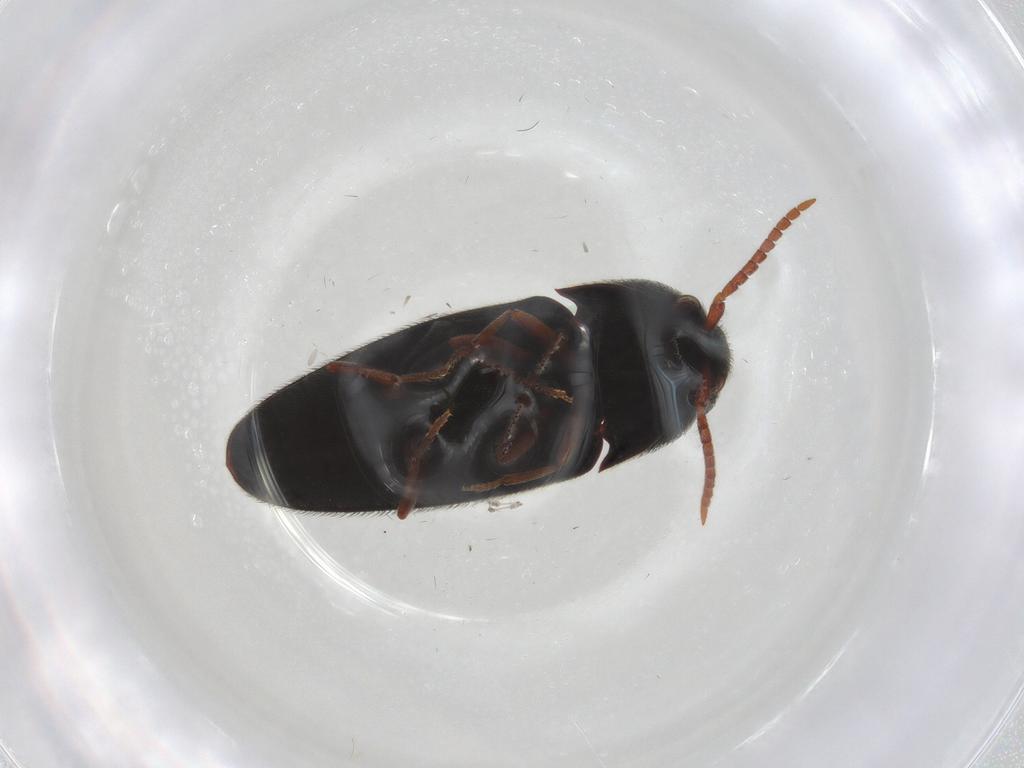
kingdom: Animalia
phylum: Arthropoda
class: Insecta
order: Coleoptera
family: Eucnemidae
